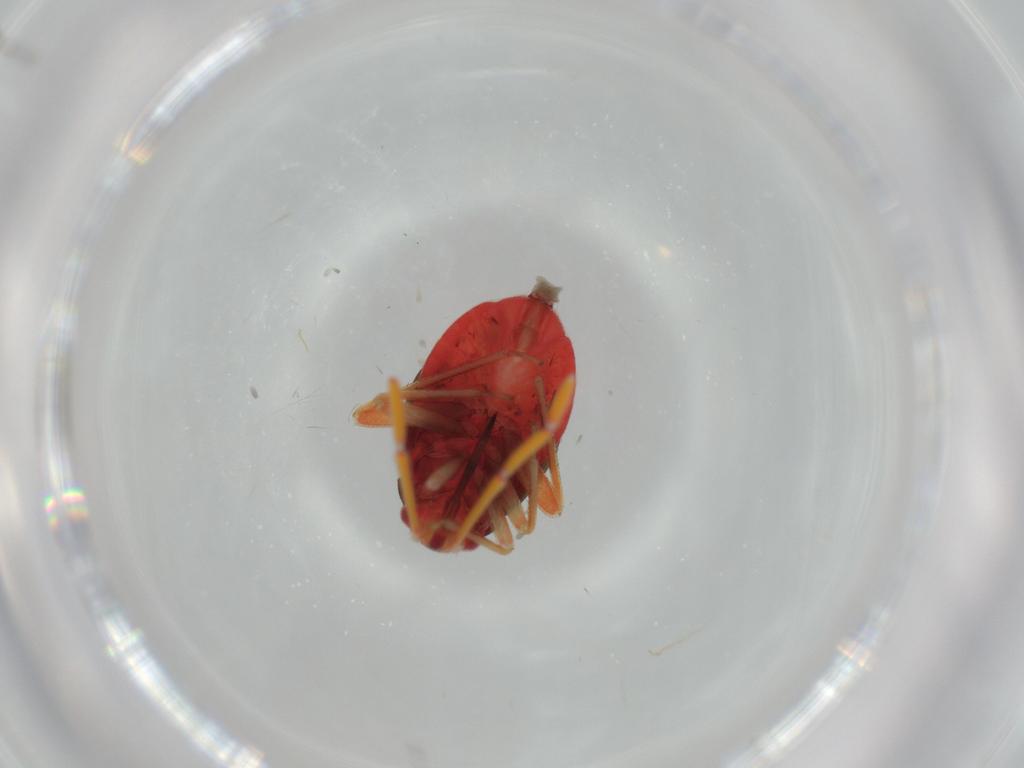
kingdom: Animalia
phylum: Arthropoda
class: Insecta
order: Hemiptera
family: Miridae
